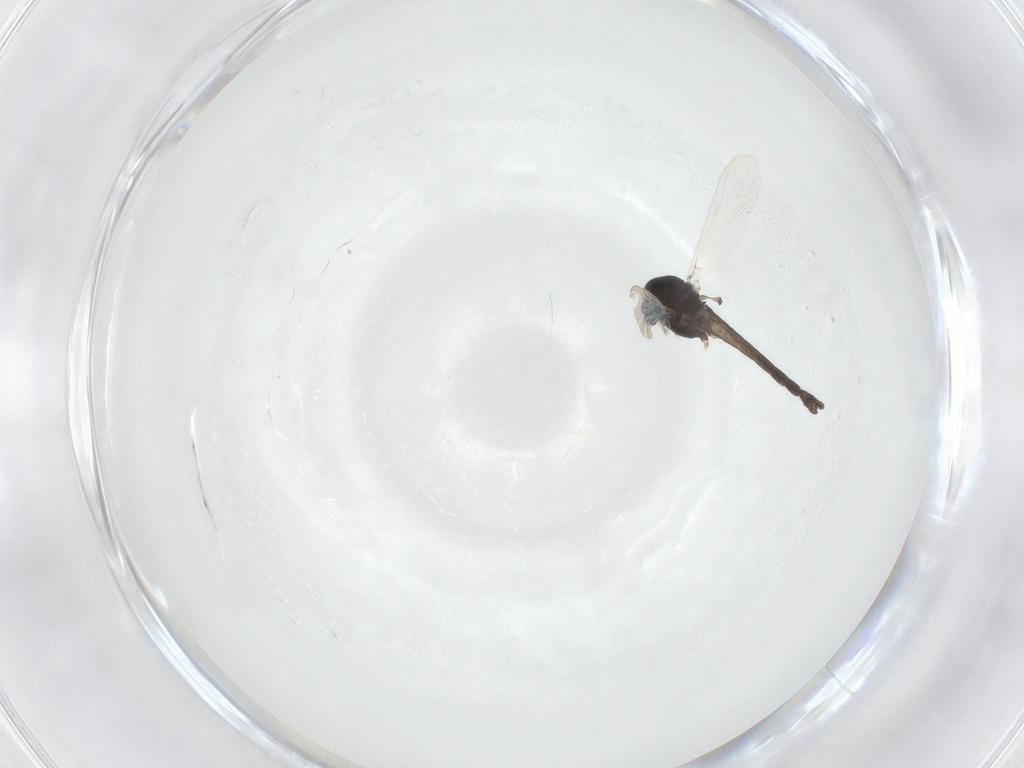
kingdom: Animalia
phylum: Arthropoda
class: Insecta
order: Diptera
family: Chironomidae
